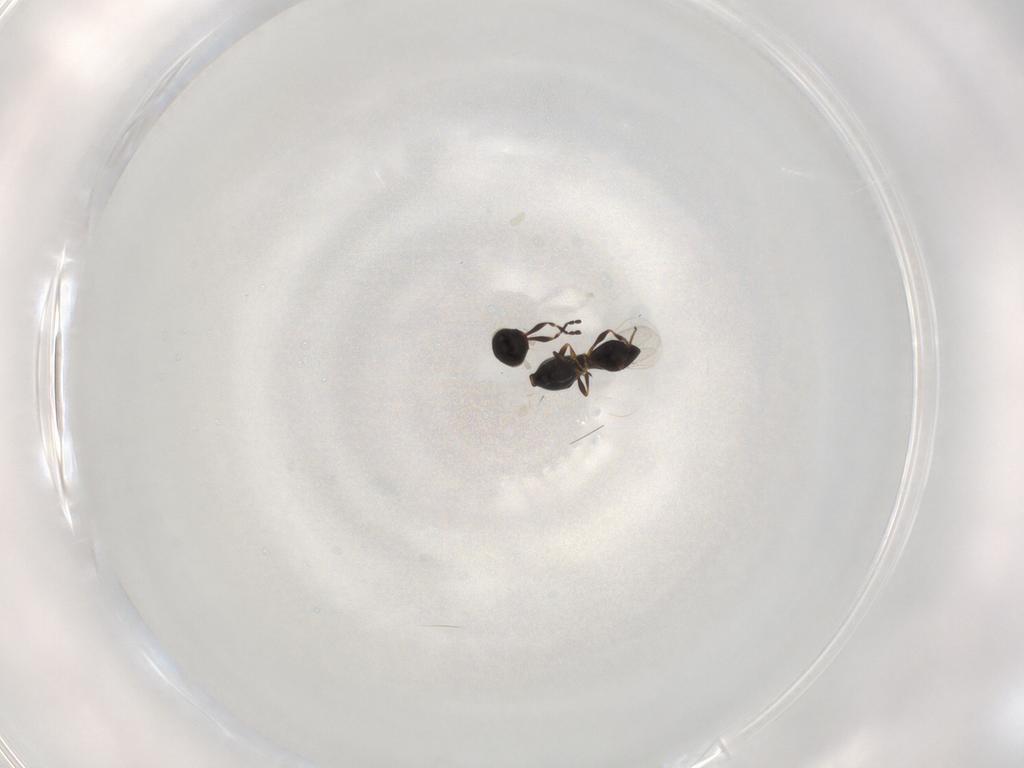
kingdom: Animalia
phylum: Arthropoda
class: Insecta
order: Hymenoptera
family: Platygastridae
